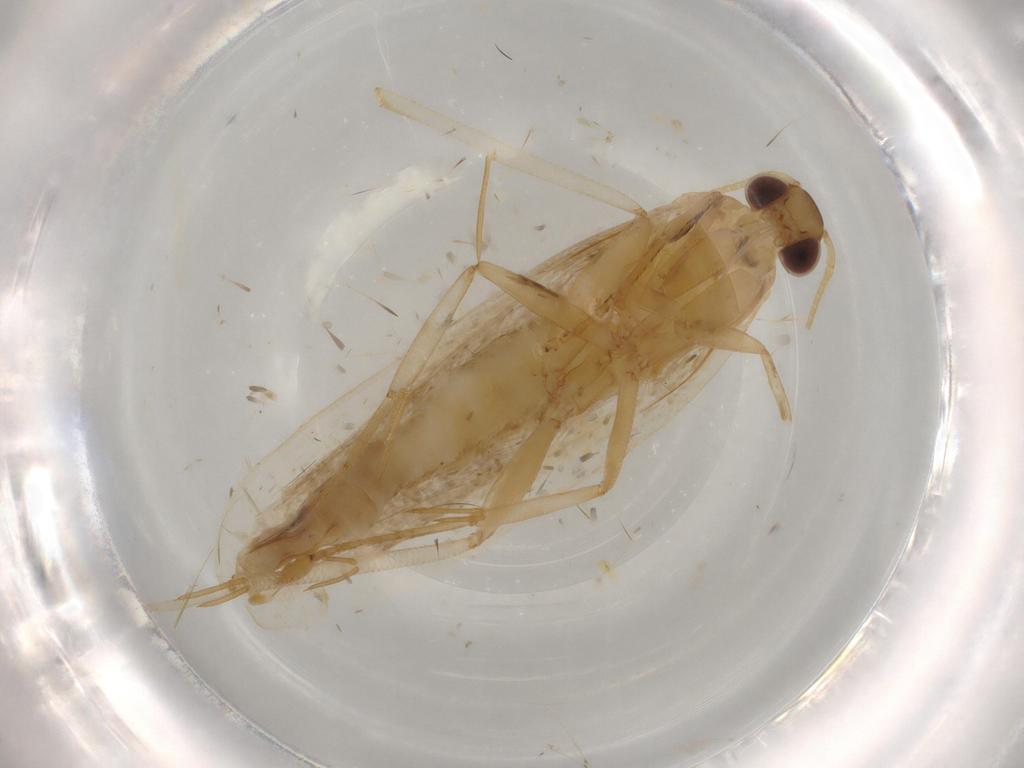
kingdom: Animalia
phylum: Arthropoda
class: Insecta
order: Lepidoptera
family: Gelechiidae
